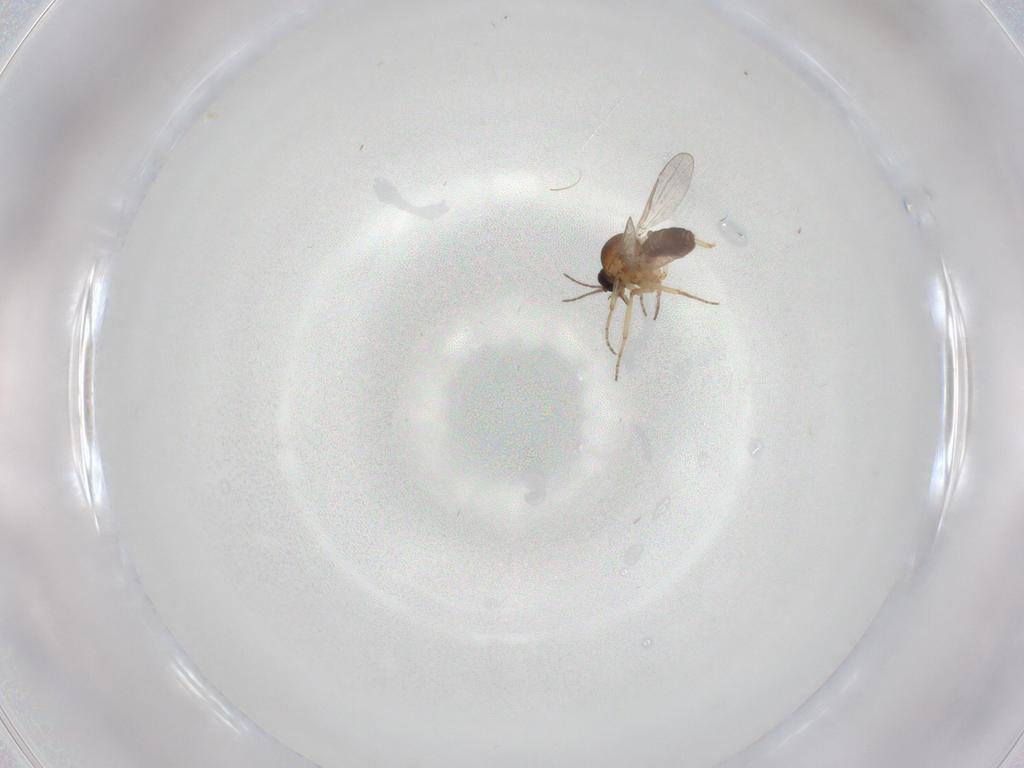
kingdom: Animalia
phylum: Arthropoda
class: Insecta
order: Diptera
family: Ceratopogonidae
